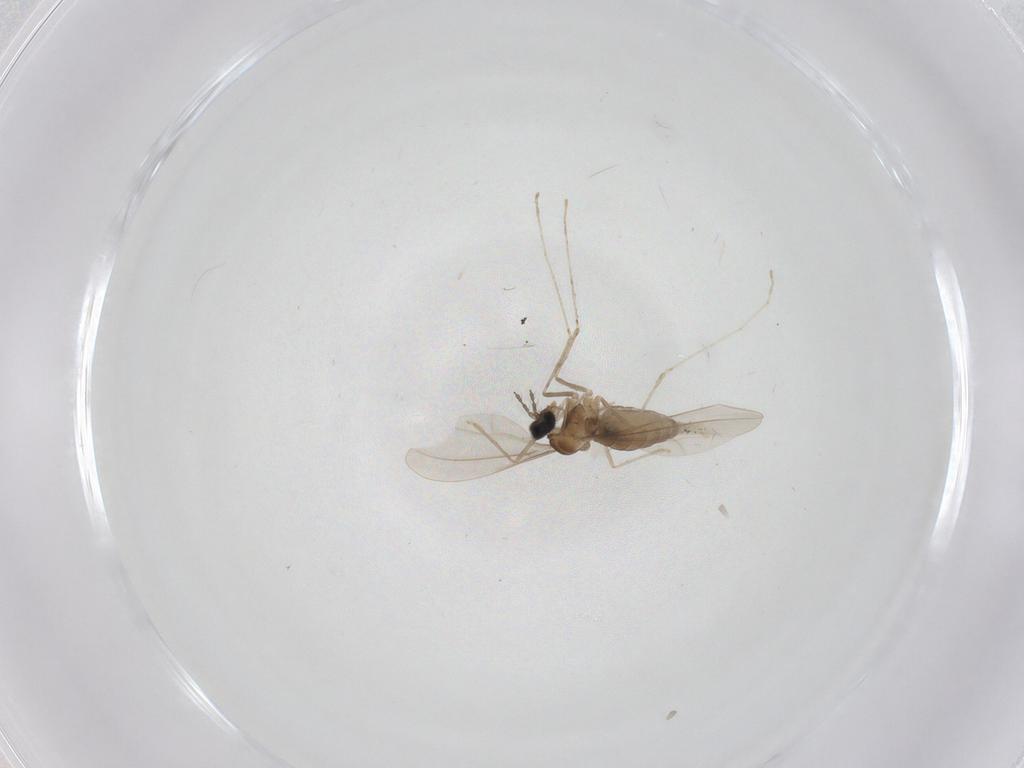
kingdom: Animalia
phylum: Arthropoda
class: Insecta
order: Diptera
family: Cecidomyiidae
